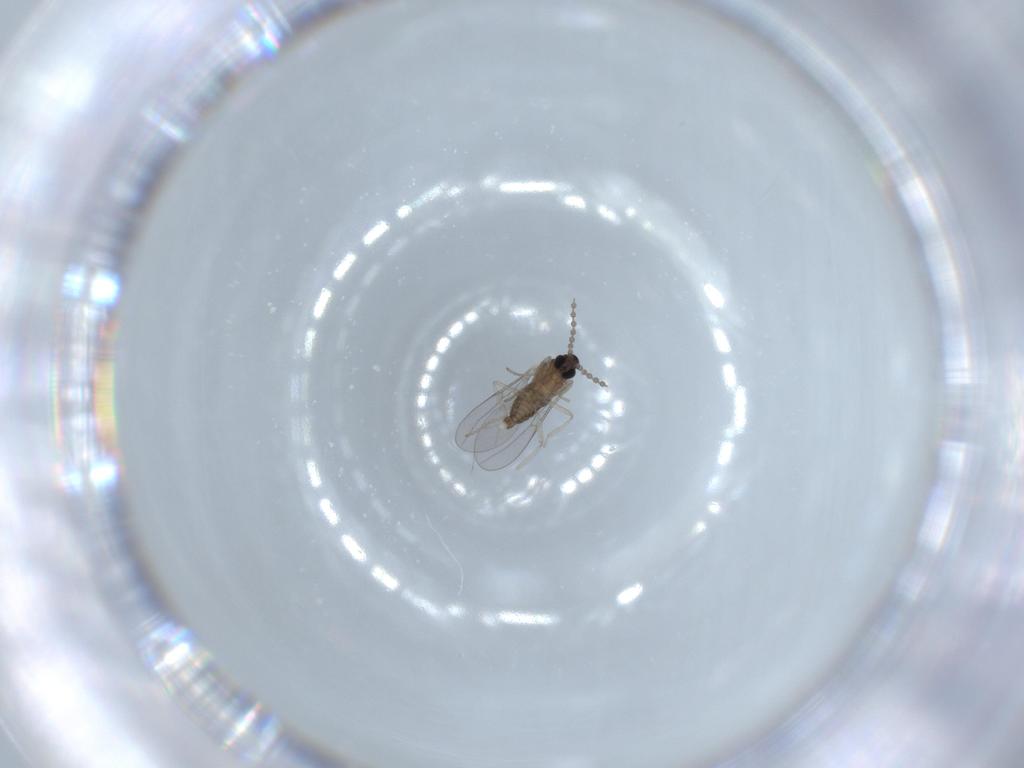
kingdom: Animalia
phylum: Arthropoda
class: Insecta
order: Diptera
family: Cecidomyiidae
